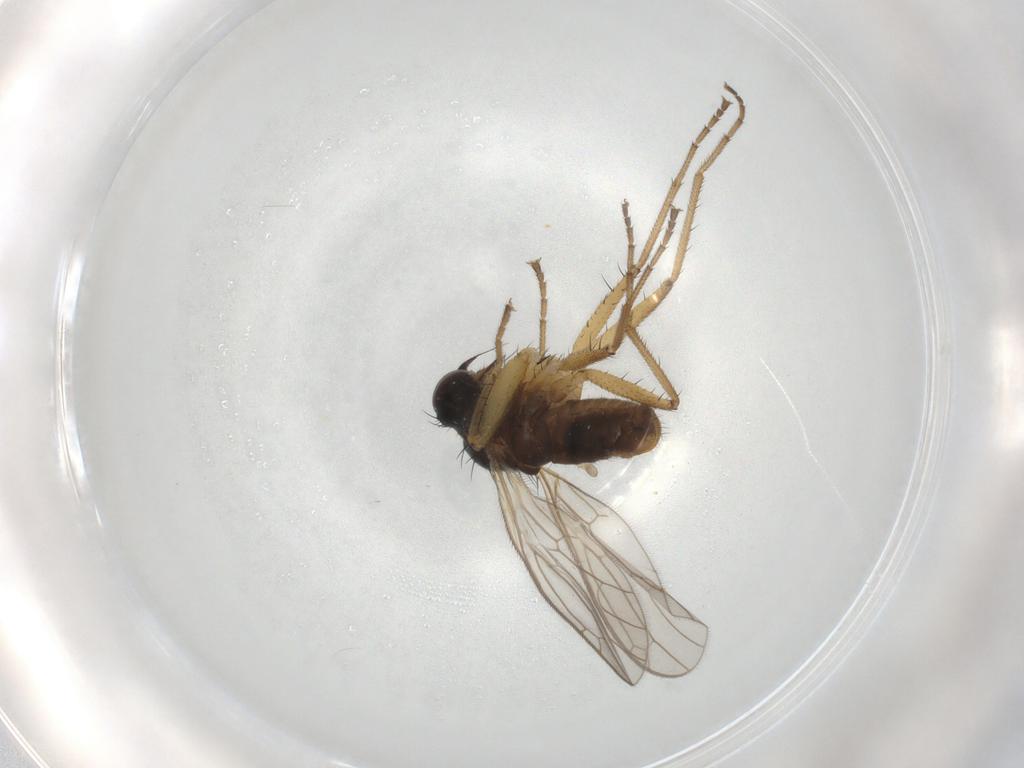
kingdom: Animalia
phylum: Arthropoda
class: Insecta
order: Diptera
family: Empididae
